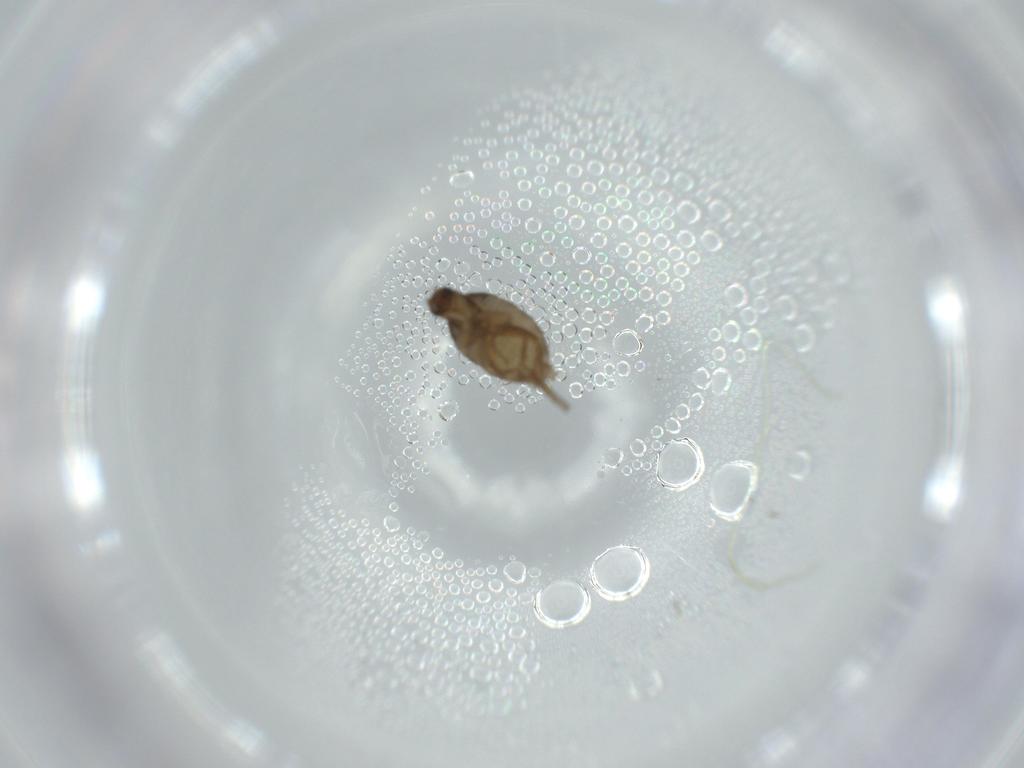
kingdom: Animalia
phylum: Arthropoda
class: Insecta
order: Diptera
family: Phoridae
